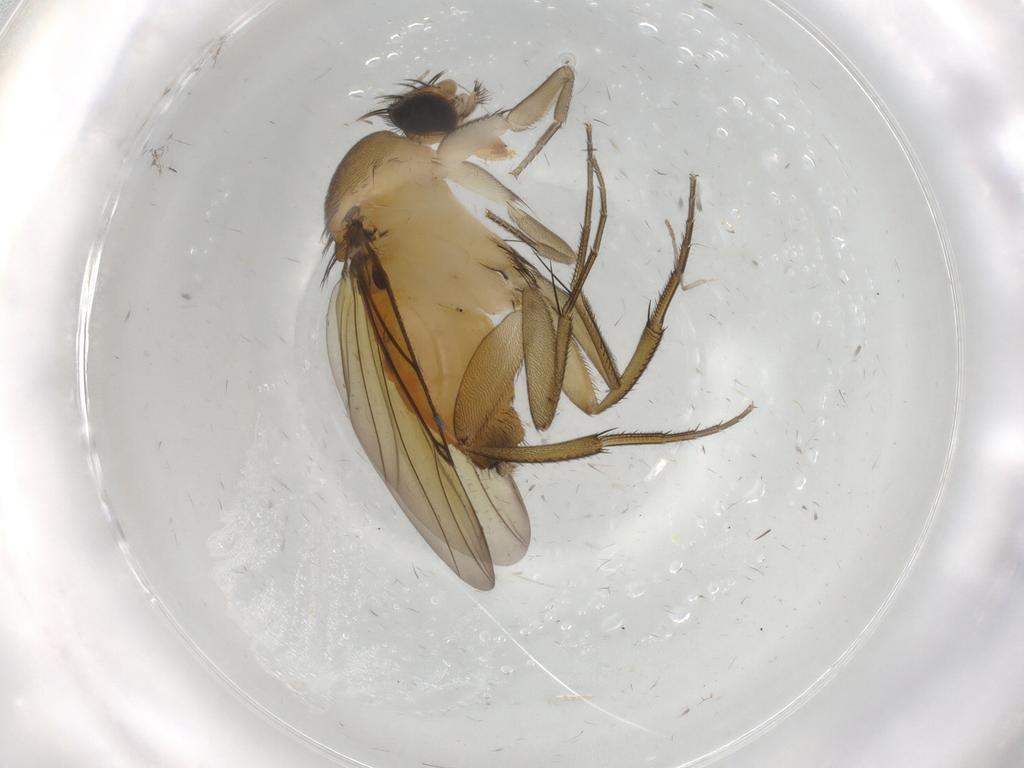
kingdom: Animalia
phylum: Arthropoda
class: Insecta
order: Diptera
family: Psychodidae
